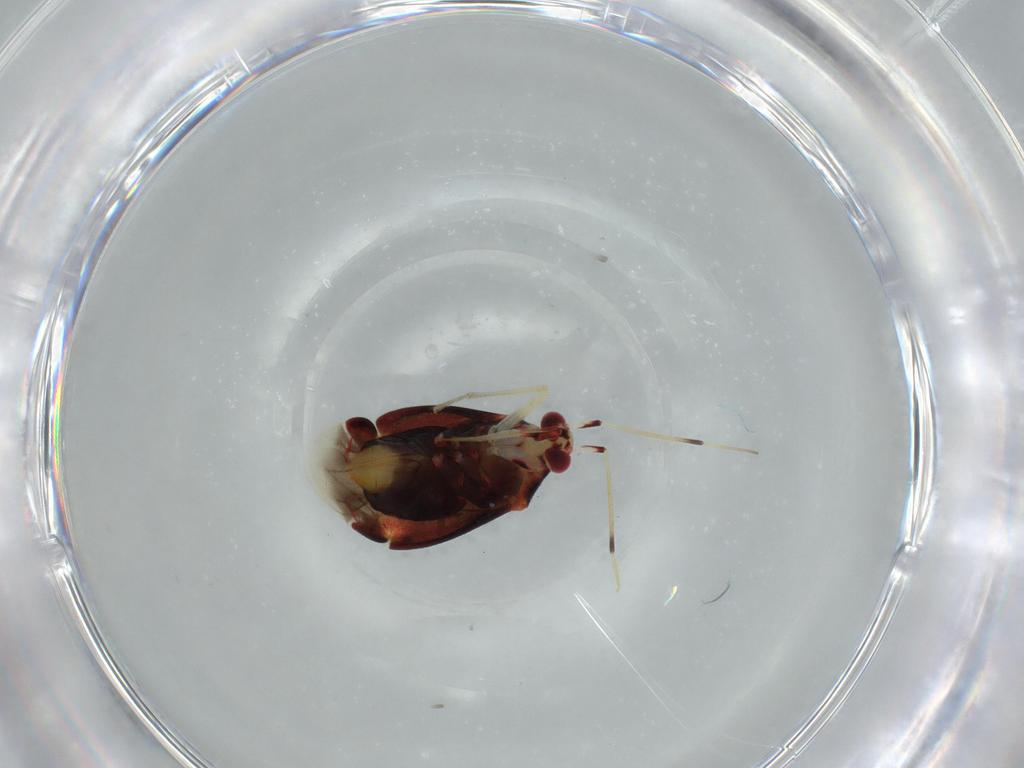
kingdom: Animalia
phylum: Arthropoda
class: Insecta
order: Hemiptera
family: Miridae
